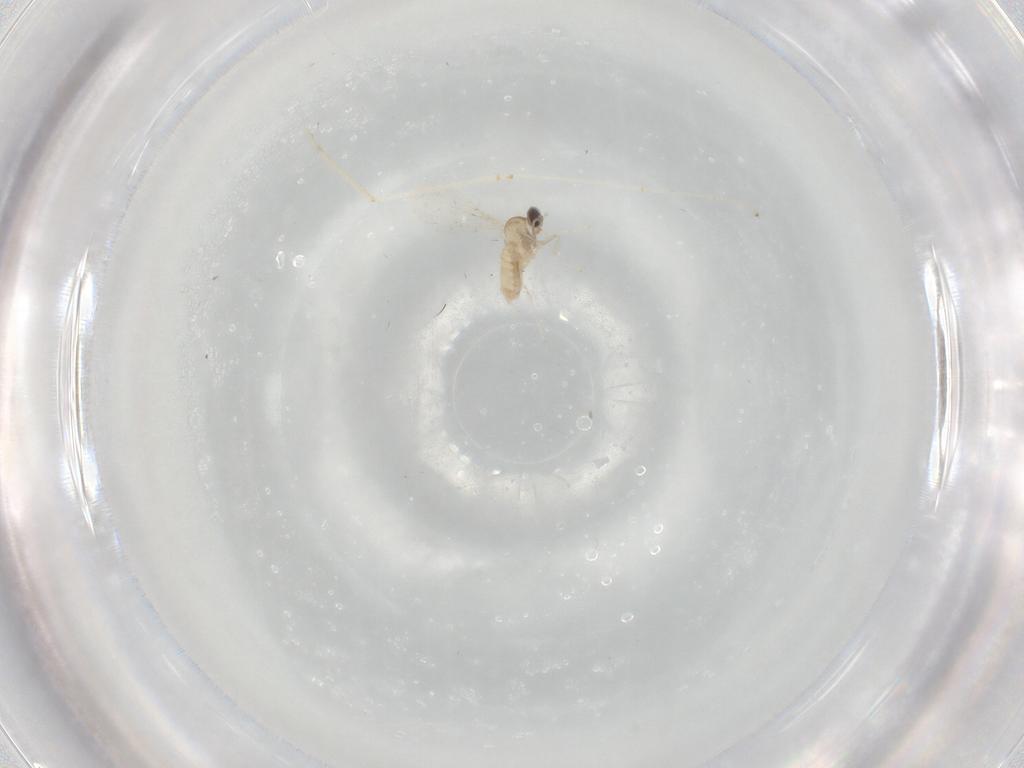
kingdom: Animalia
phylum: Arthropoda
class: Insecta
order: Diptera
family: Cecidomyiidae
